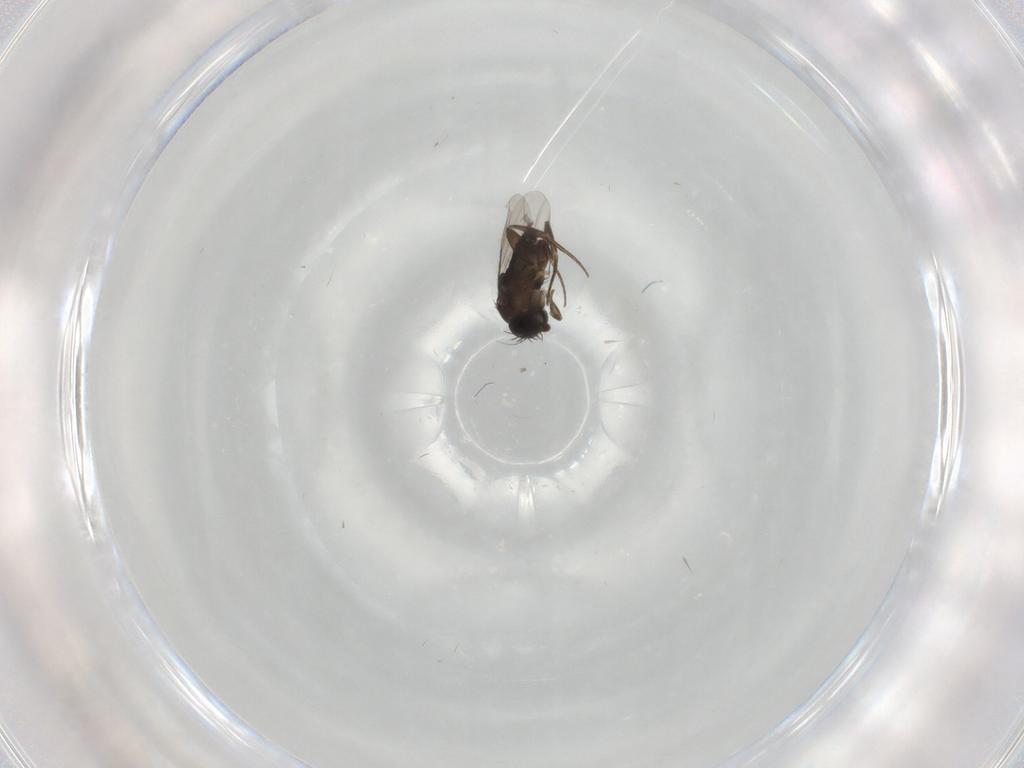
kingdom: Animalia
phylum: Arthropoda
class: Insecta
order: Diptera
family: Phoridae
